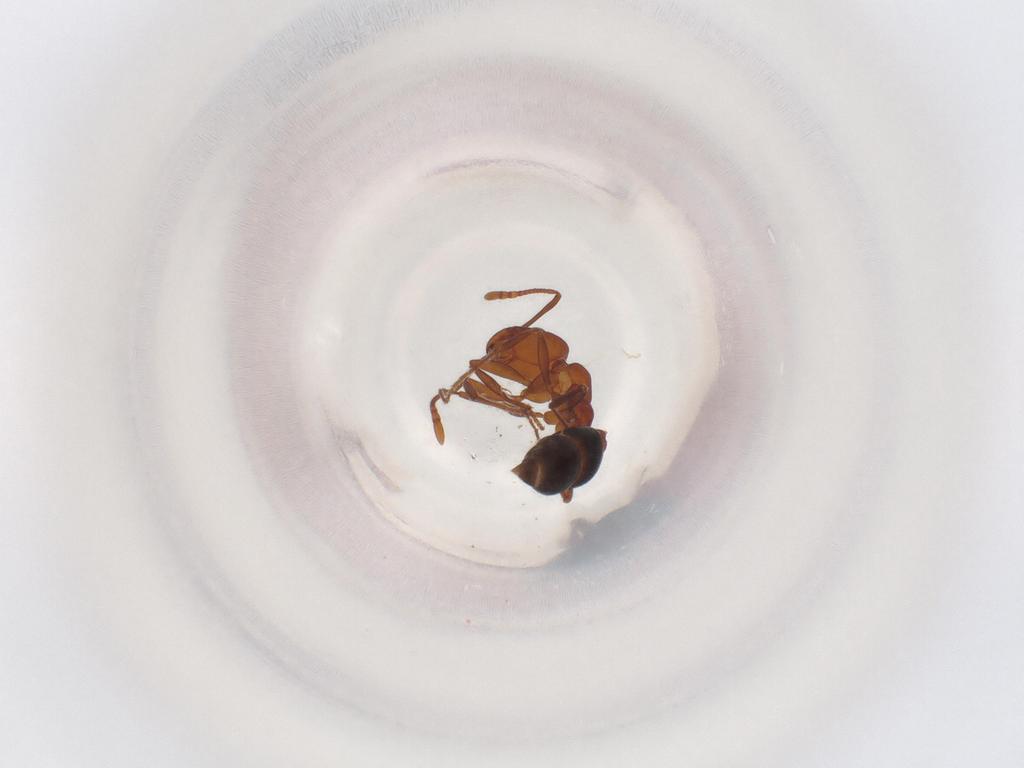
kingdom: Animalia
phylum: Arthropoda
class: Insecta
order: Hymenoptera
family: Formicidae
